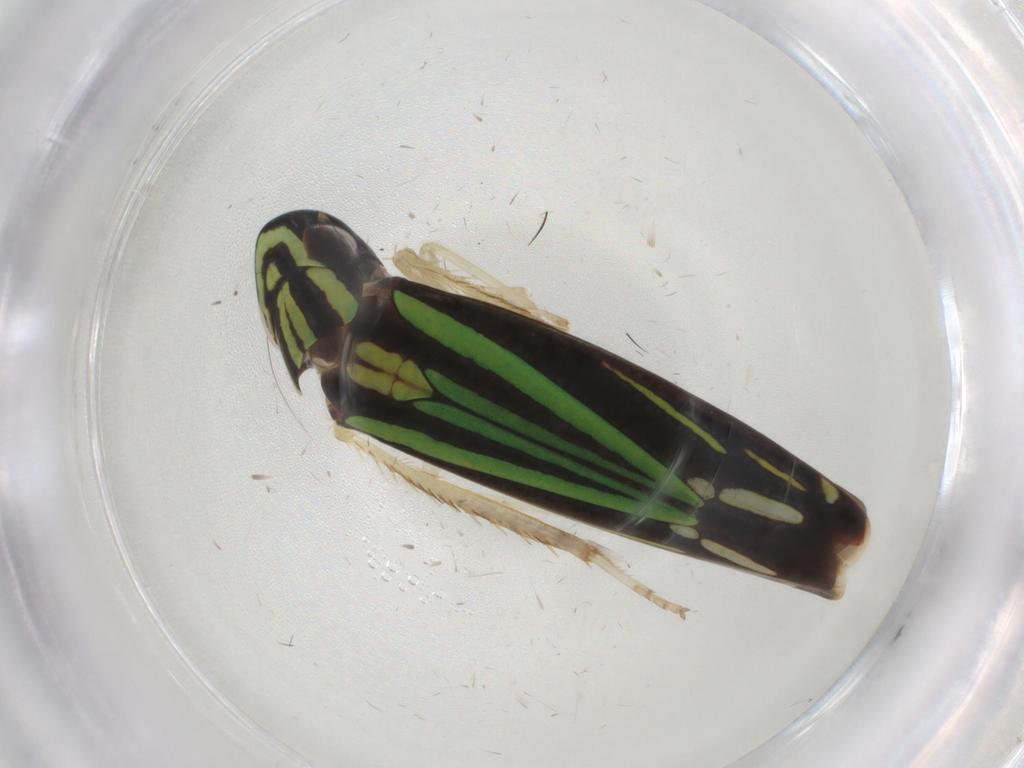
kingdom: Animalia
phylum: Arthropoda
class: Insecta
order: Hemiptera
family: Cicadellidae
